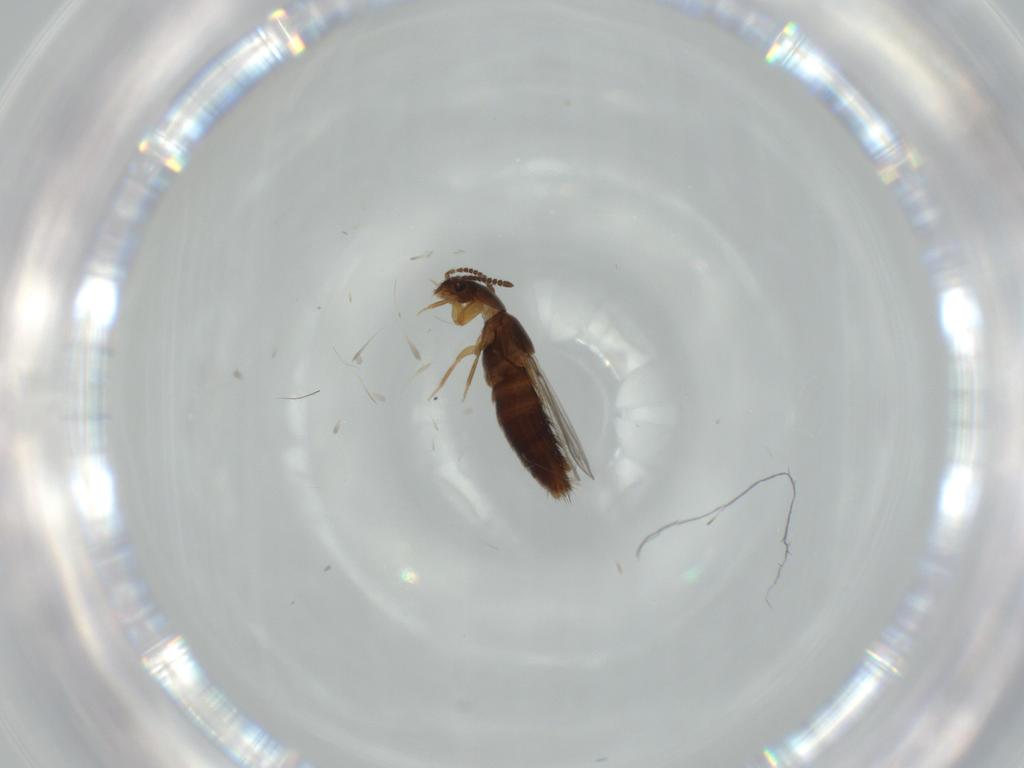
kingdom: Animalia
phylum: Arthropoda
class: Insecta
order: Coleoptera
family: Staphylinidae
